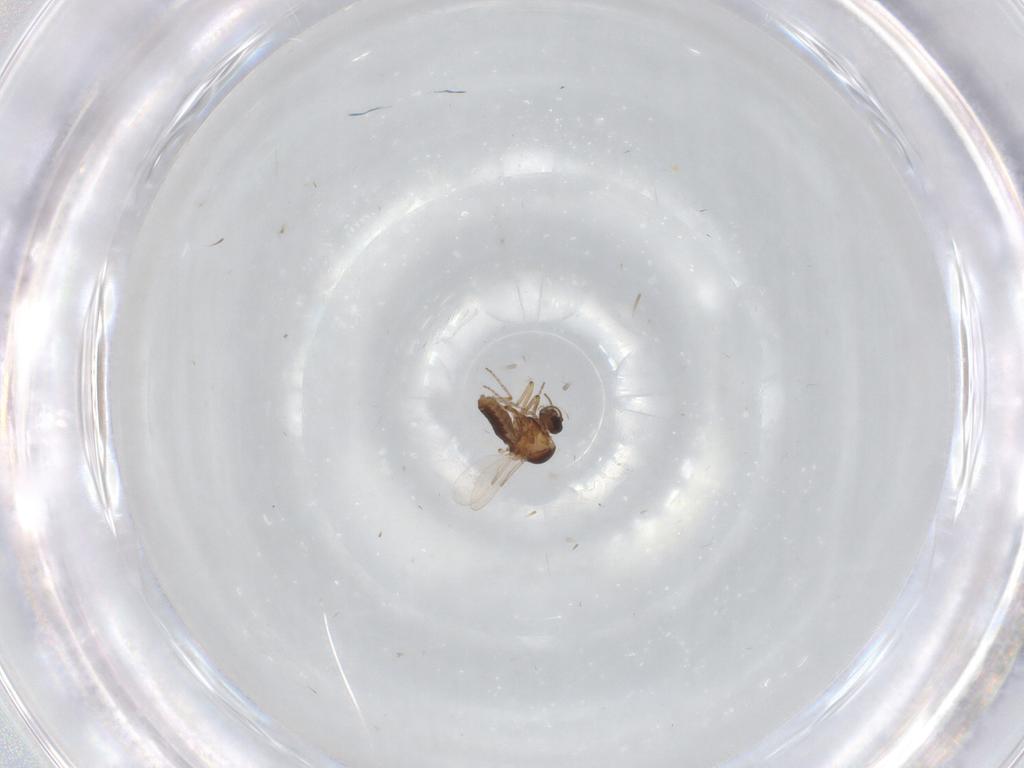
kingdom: Animalia
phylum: Arthropoda
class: Insecta
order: Diptera
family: Ceratopogonidae
